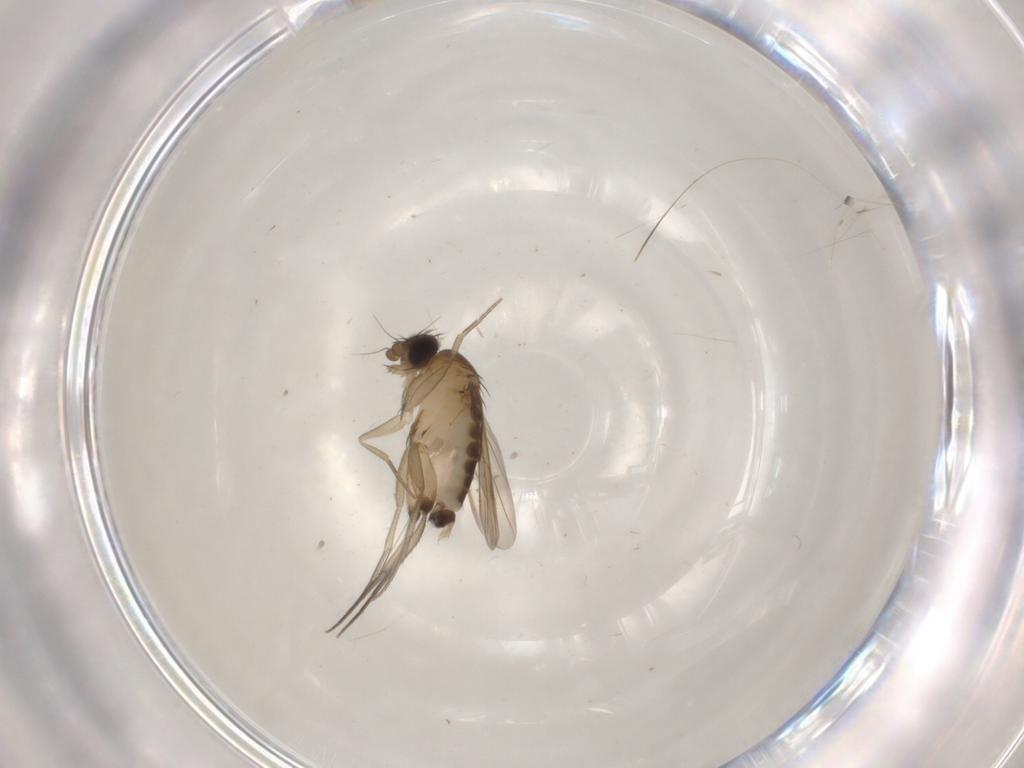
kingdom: Animalia
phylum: Arthropoda
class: Insecta
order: Diptera
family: Phoridae
